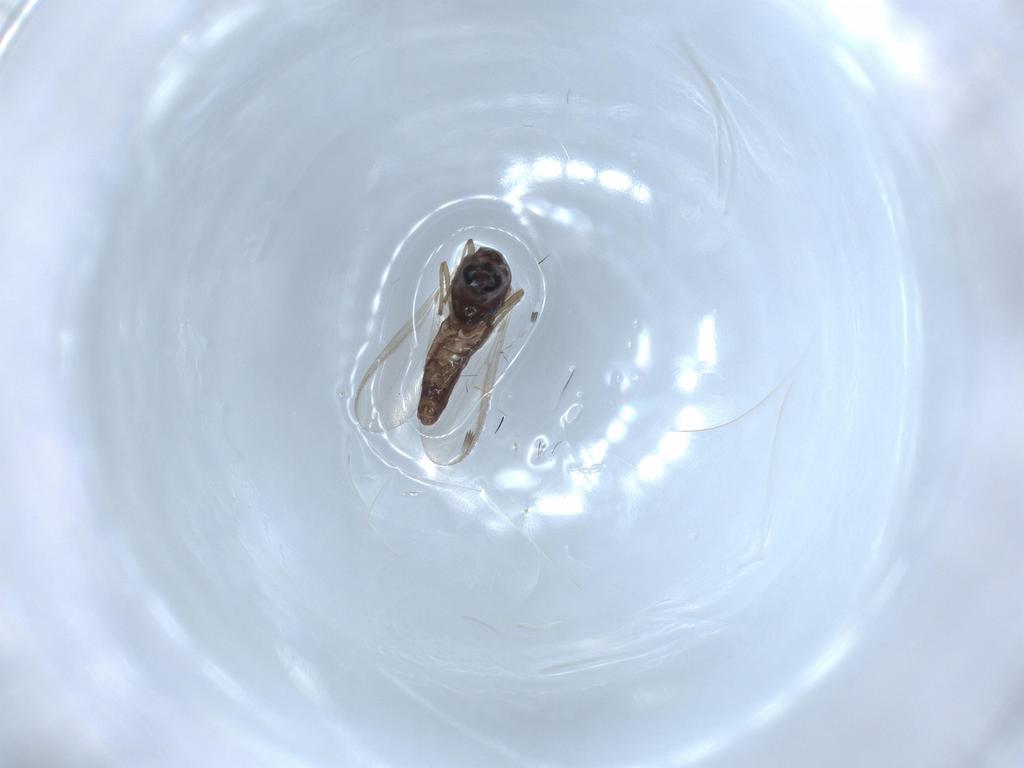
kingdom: Animalia
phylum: Arthropoda
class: Insecta
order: Diptera
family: Chironomidae
